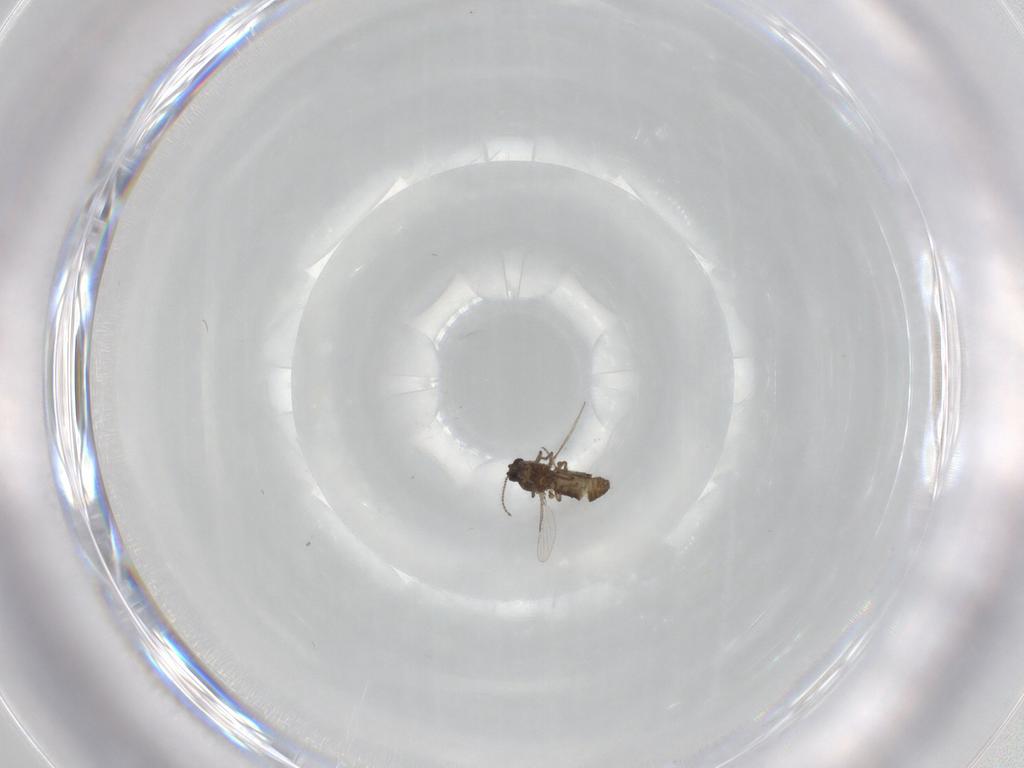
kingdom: Animalia
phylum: Arthropoda
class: Insecta
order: Diptera
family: Ceratopogonidae
